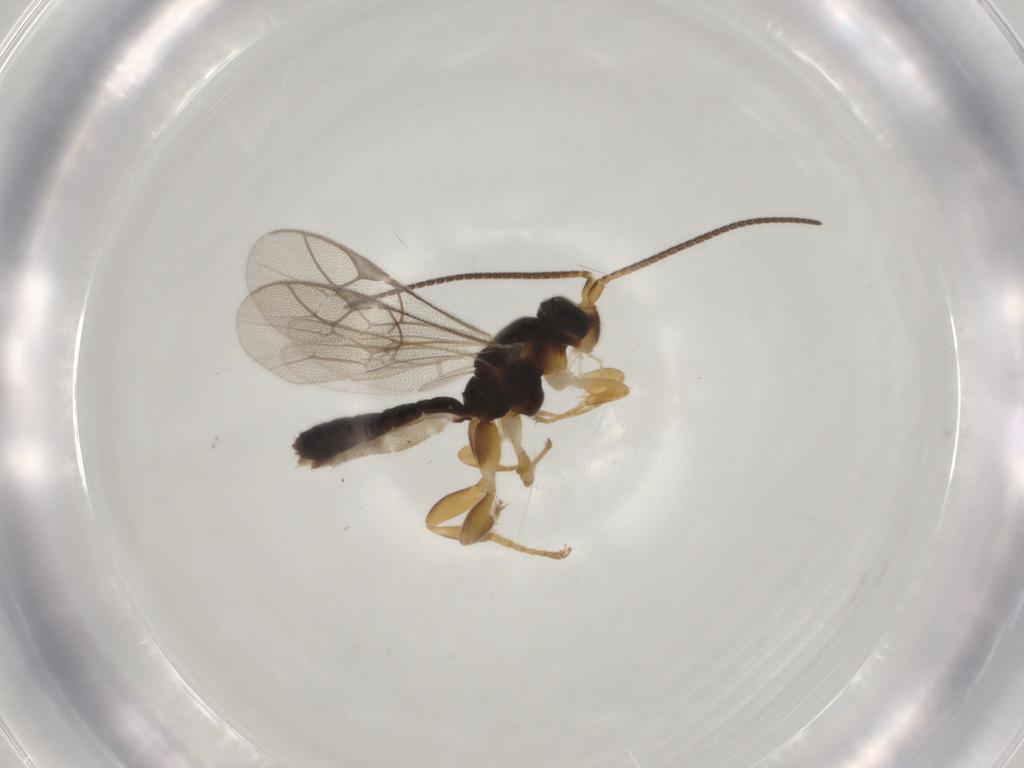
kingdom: Animalia
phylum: Arthropoda
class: Insecta
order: Hymenoptera
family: Ichneumonidae
